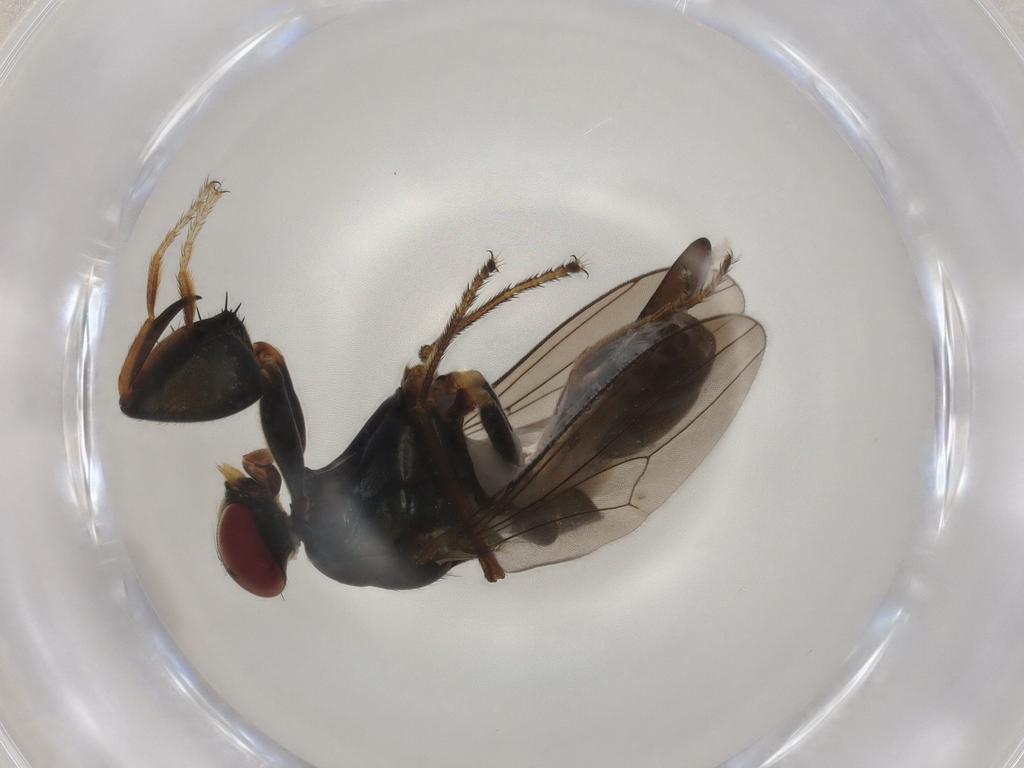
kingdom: Animalia
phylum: Arthropoda
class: Insecta
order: Diptera
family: Ephydridae
